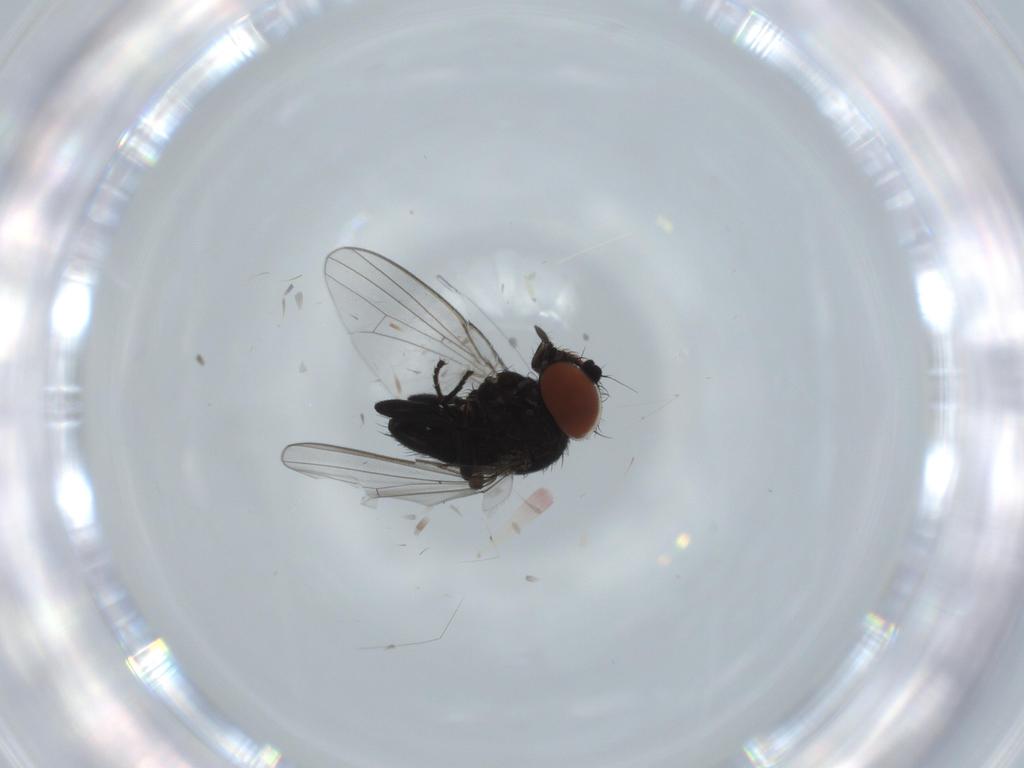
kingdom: Animalia
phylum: Arthropoda
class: Insecta
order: Diptera
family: Milichiidae
